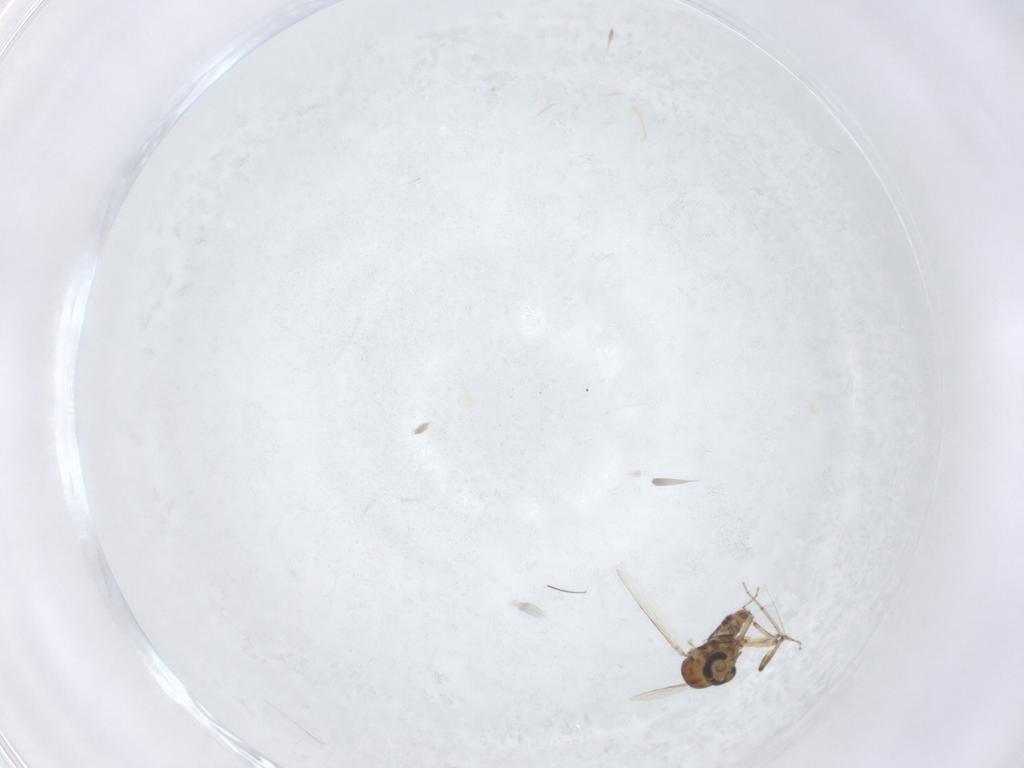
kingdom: Animalia
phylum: Arthropoda
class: Insecta
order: Diptera
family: Ceratopogonidae
